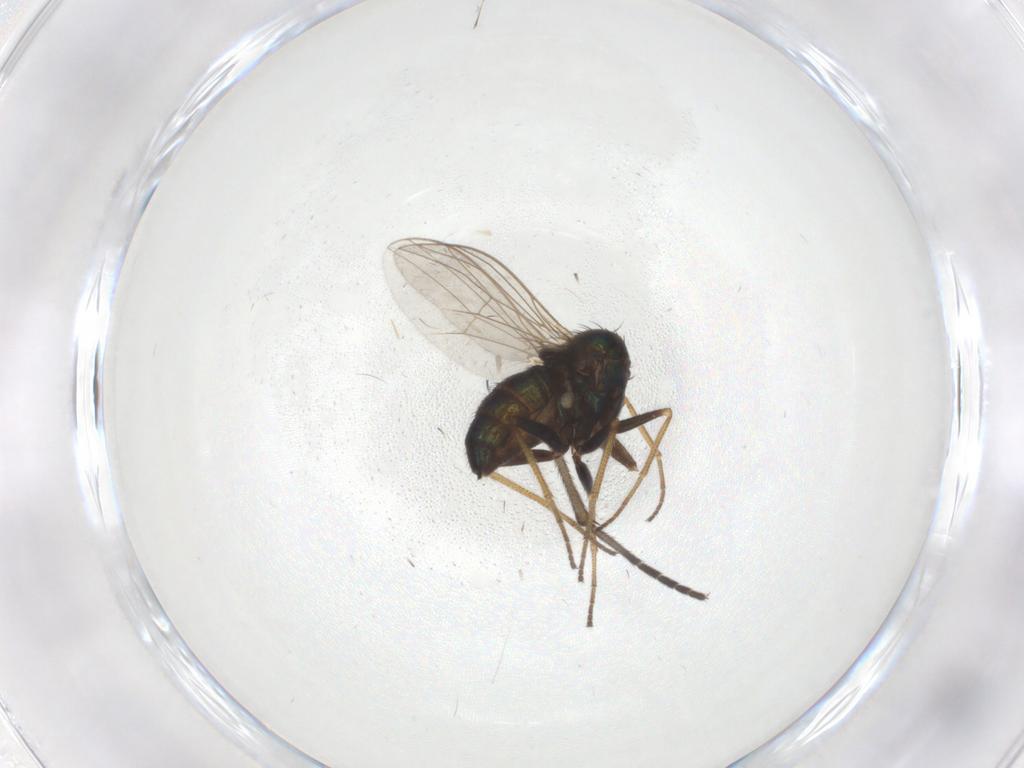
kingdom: Animalia
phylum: Arthropoda
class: Insecta
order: Diptera
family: Dolichopodidae
